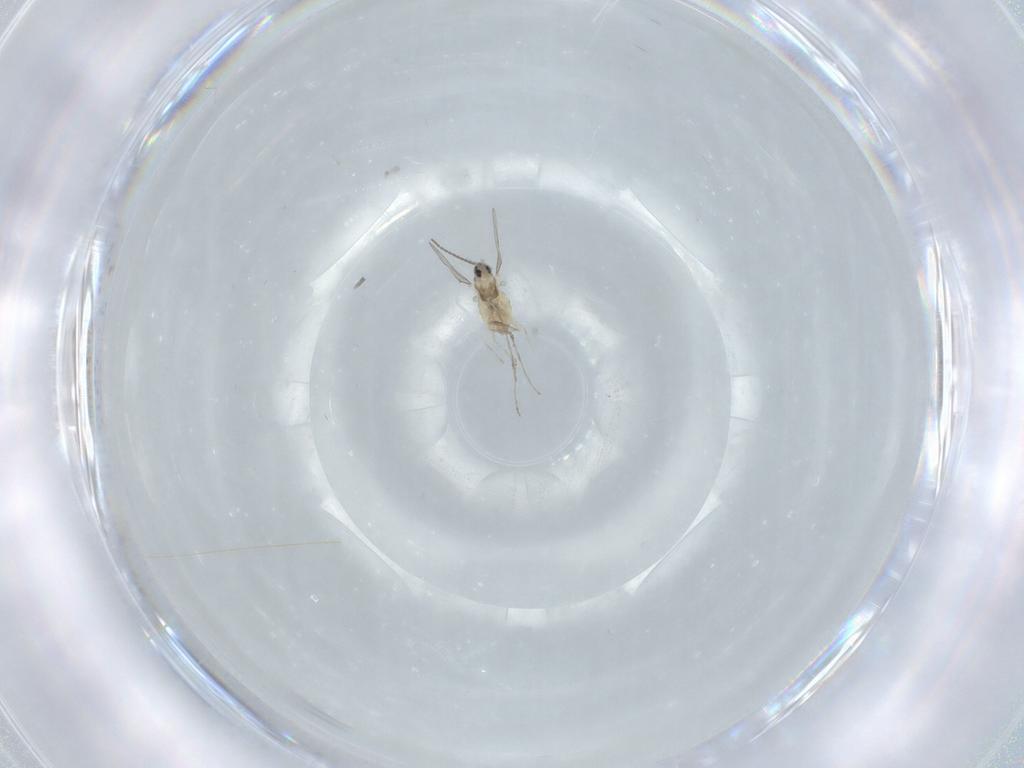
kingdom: Animalia
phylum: Arthropoda
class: Insecta
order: Diptera
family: Cecidomyiidae
